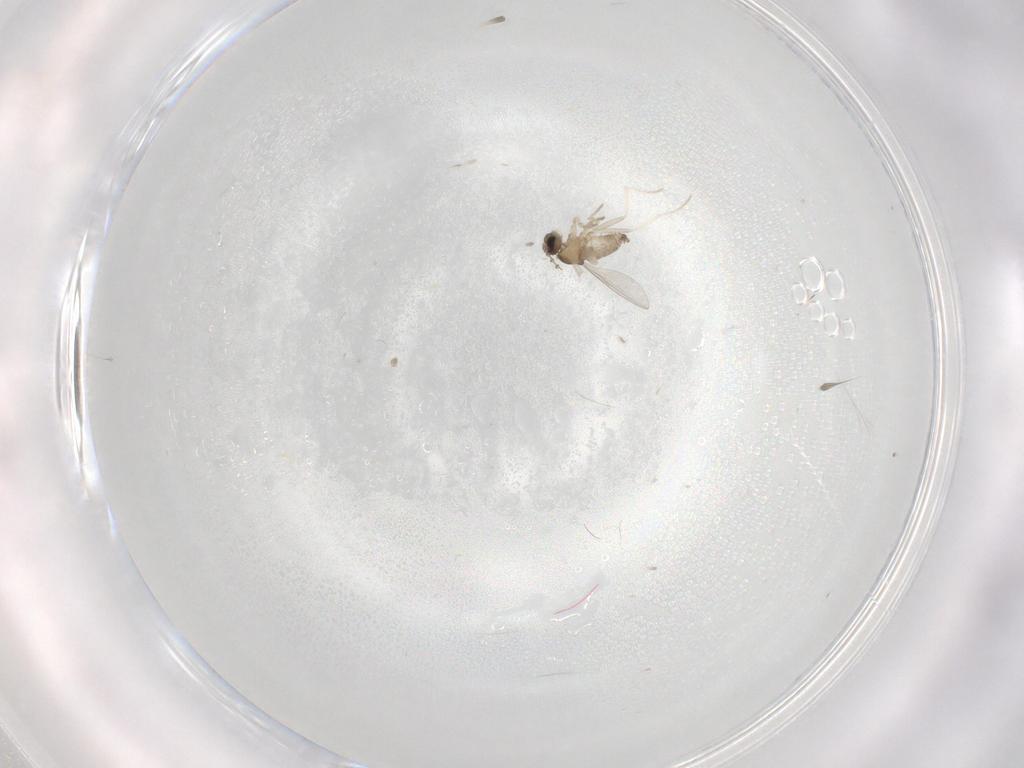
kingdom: Animalia
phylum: Arthropoda
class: Insecta
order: Diptera
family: Cecidomyiidae
